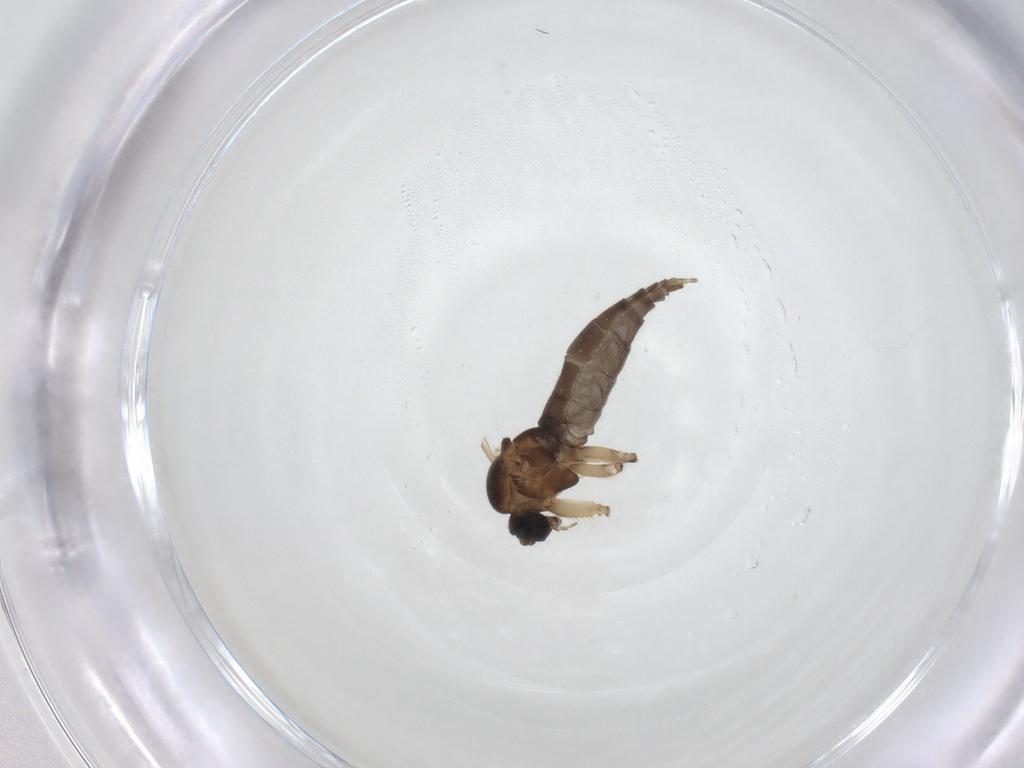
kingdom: Animalia
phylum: Arthropoda
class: Insecta
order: Diptera
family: Sciaridae
